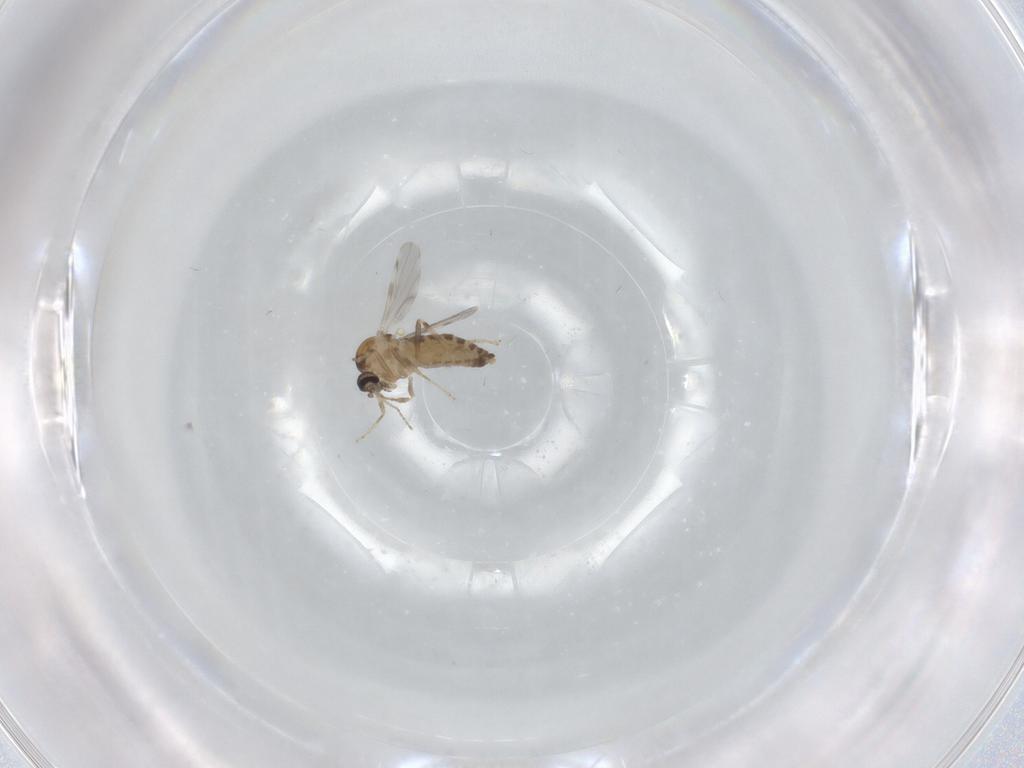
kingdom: Animalia
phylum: Arthropoda
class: Insecta
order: Diptera
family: Ceratopogonidae
